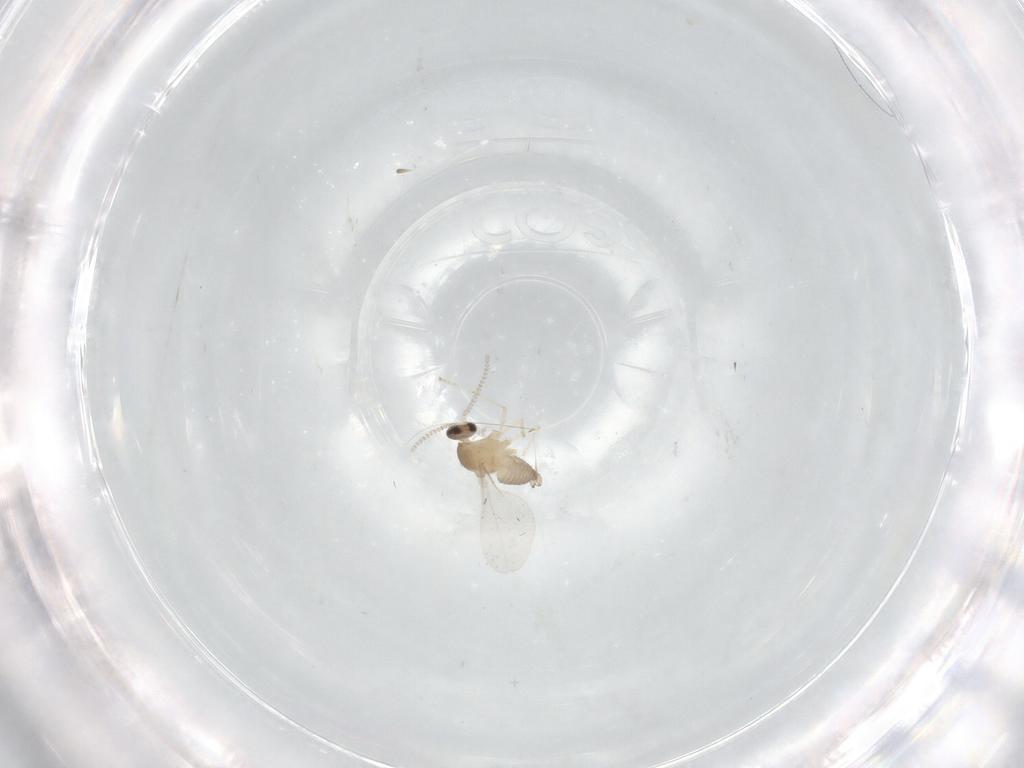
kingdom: Animalia
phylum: Arthropoda
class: Insecta
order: Diptera
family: Cecidomyiidae
